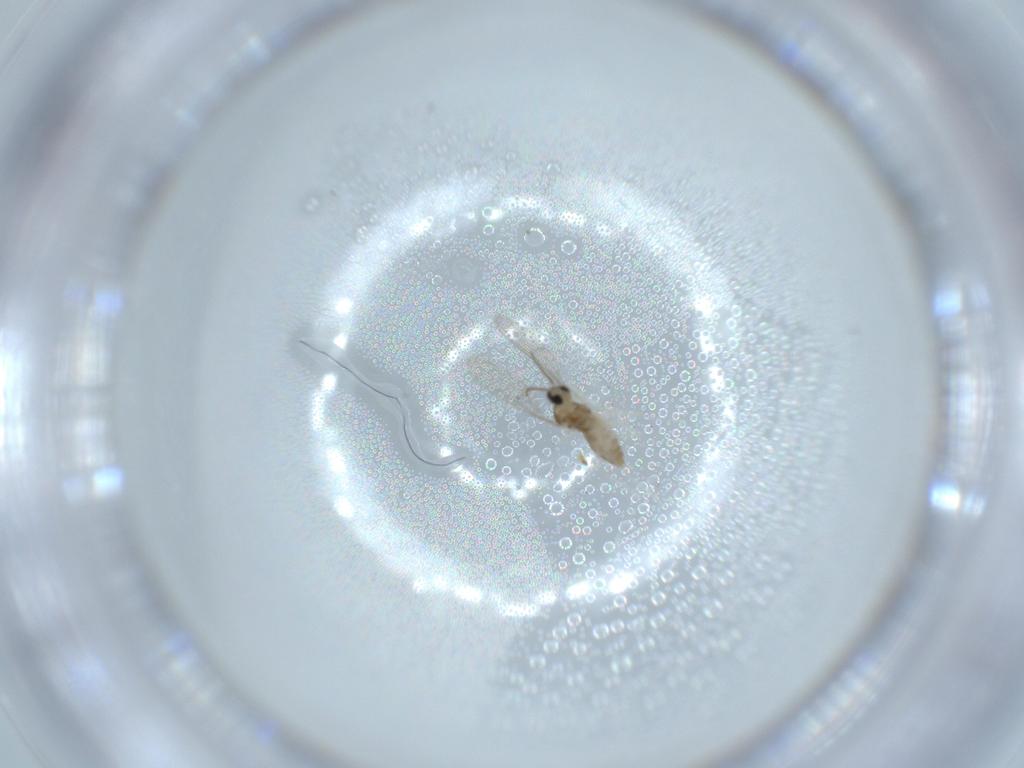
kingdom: Animalia
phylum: Arthropoda
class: Insecta
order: Diptera
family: Cecidomyiidae
